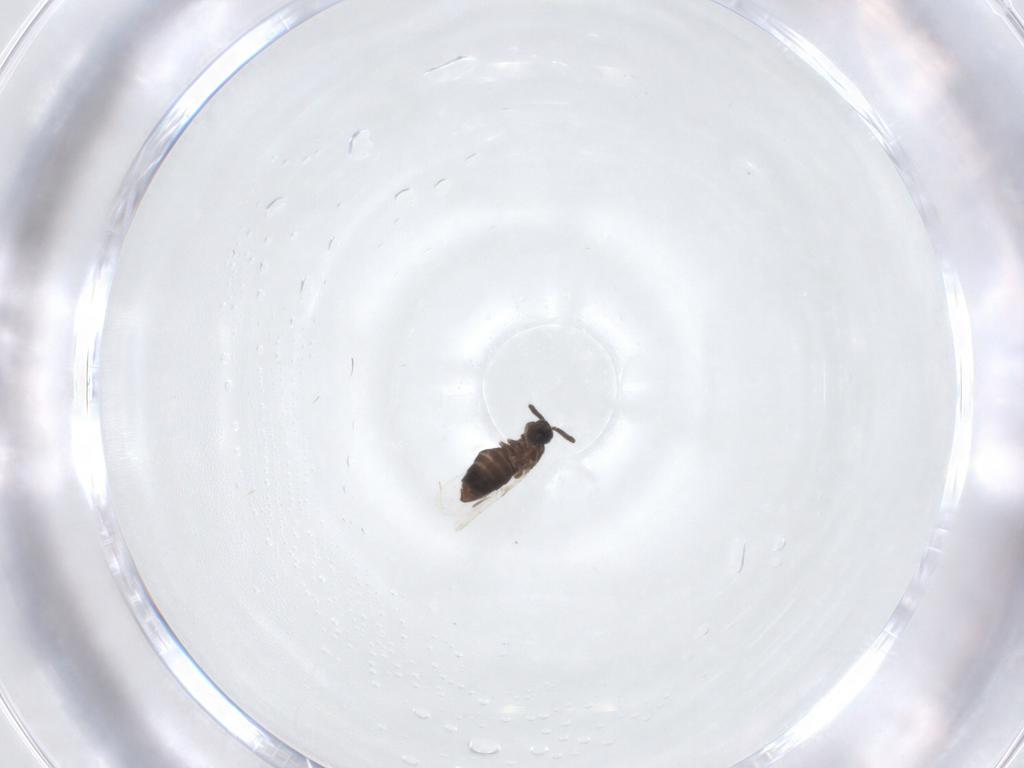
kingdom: Animalia
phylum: Arthropoda
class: Insecta
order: Diptera
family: Scatopsidae
